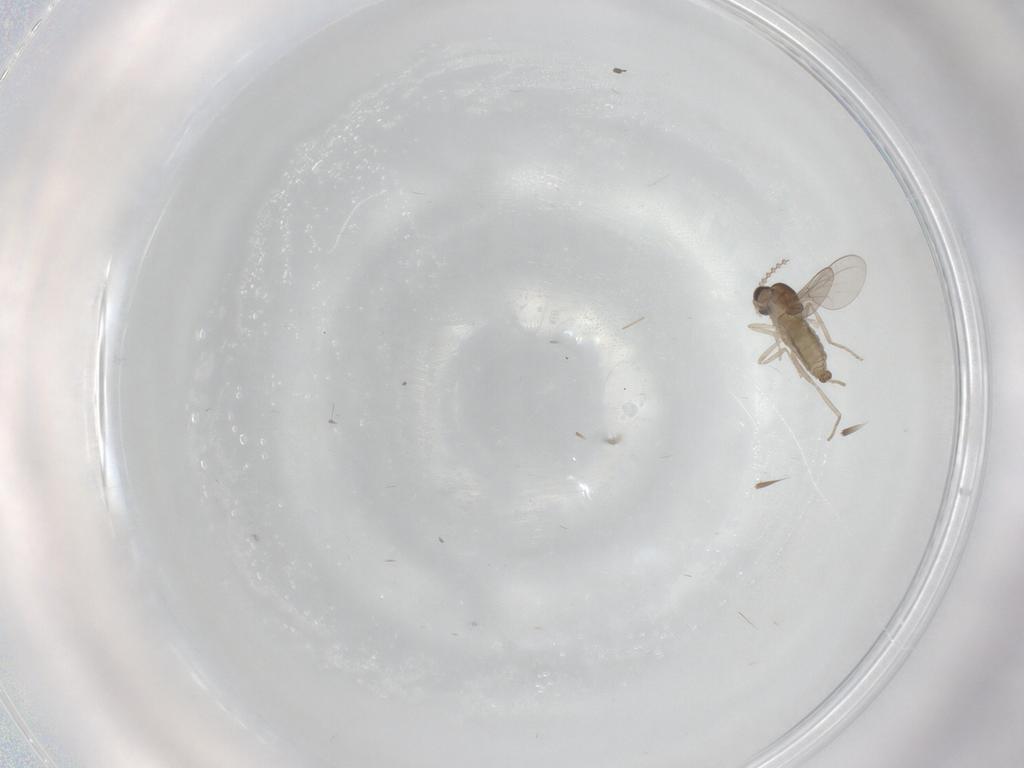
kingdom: Animalia
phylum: Arthropoda
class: Insecta
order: Diptera
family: Cecidomyiidae
